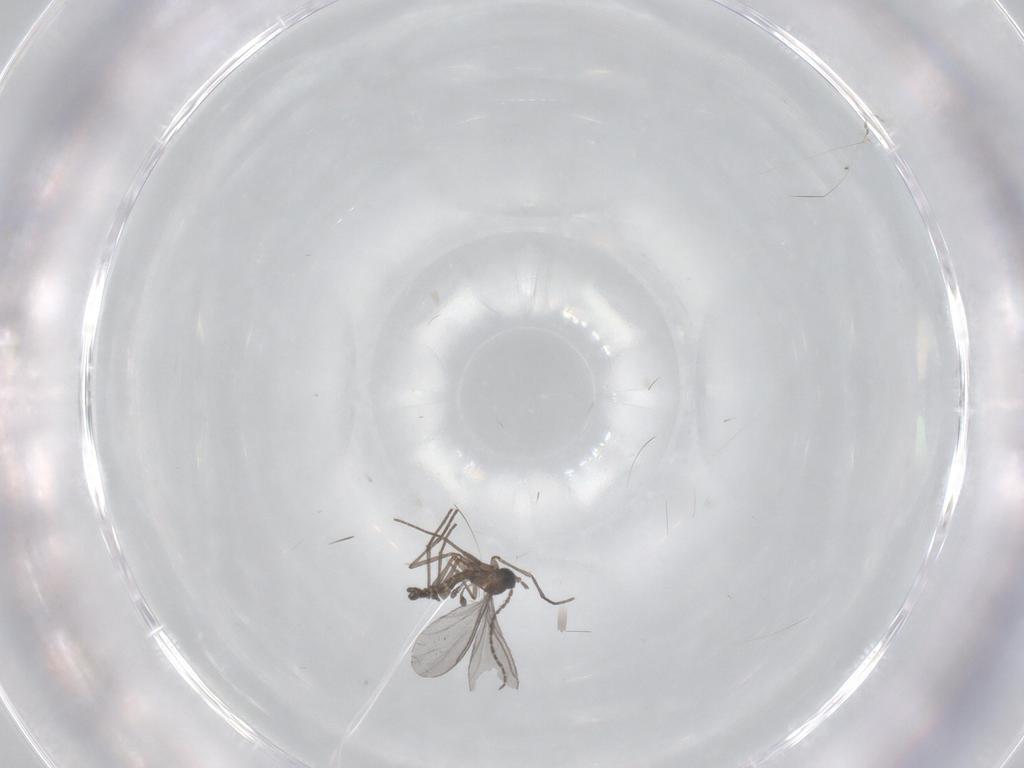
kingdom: Animalia
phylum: Arthropoda
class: Insecta
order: Diptera
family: Sciaridae
